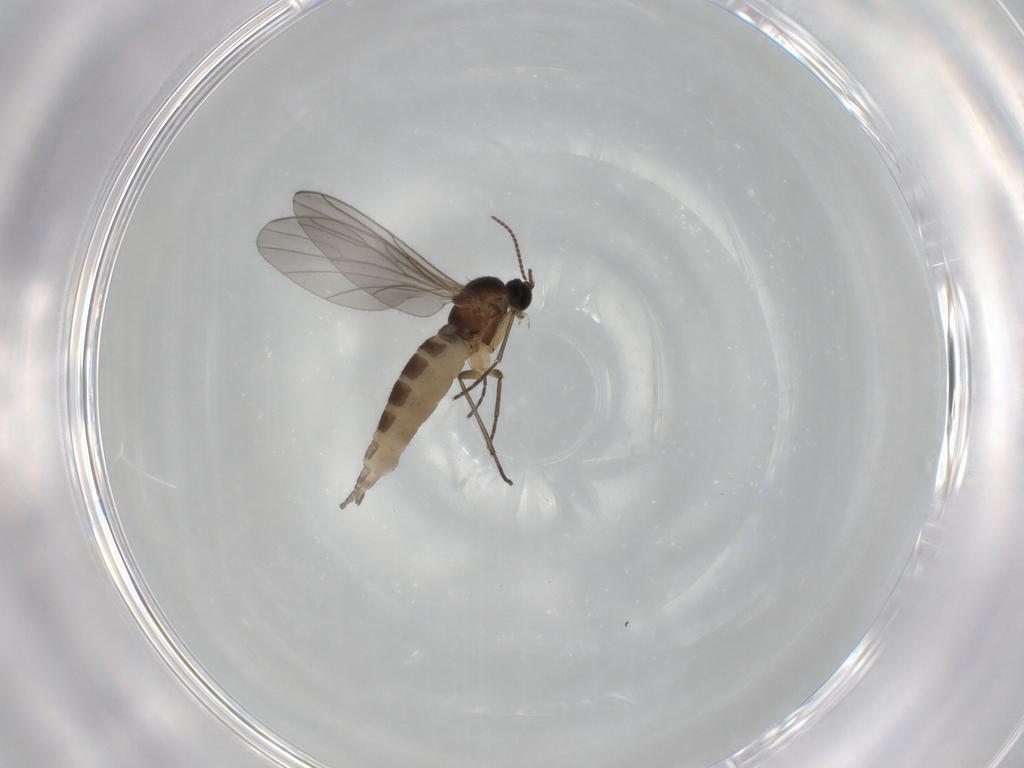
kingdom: Animalia
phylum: Arthropoda
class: Insecta
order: Diptera
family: Sciaridae
